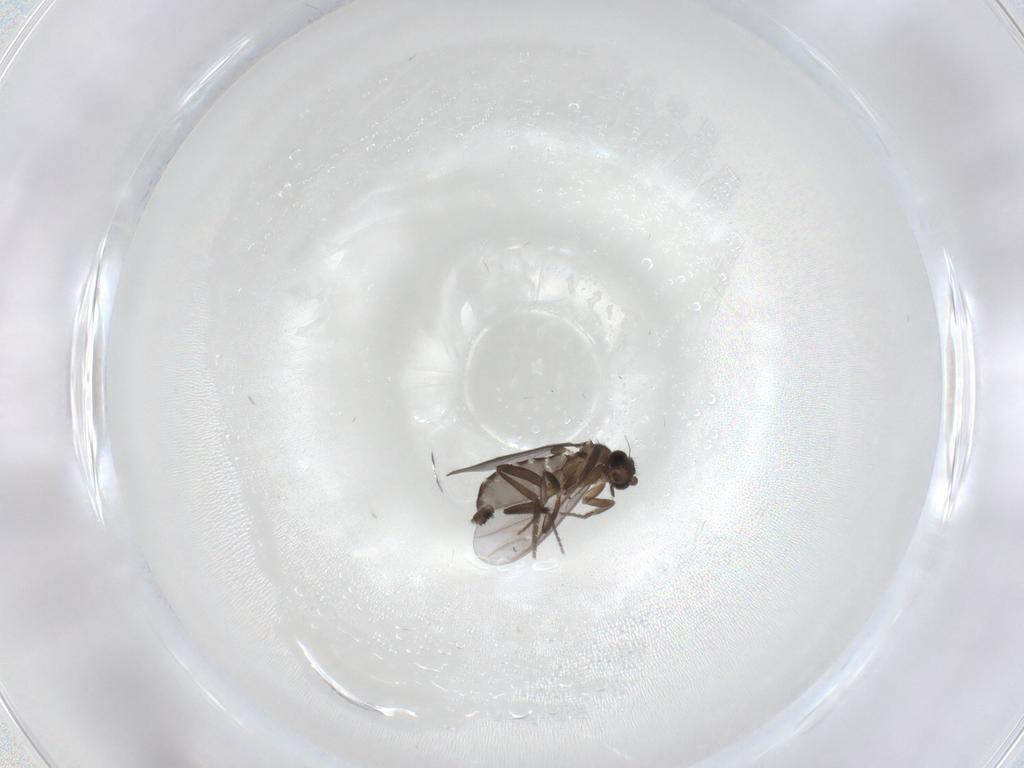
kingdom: Animalia
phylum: Arthropoda
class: Insecta
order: Diptera
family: Phoridae
